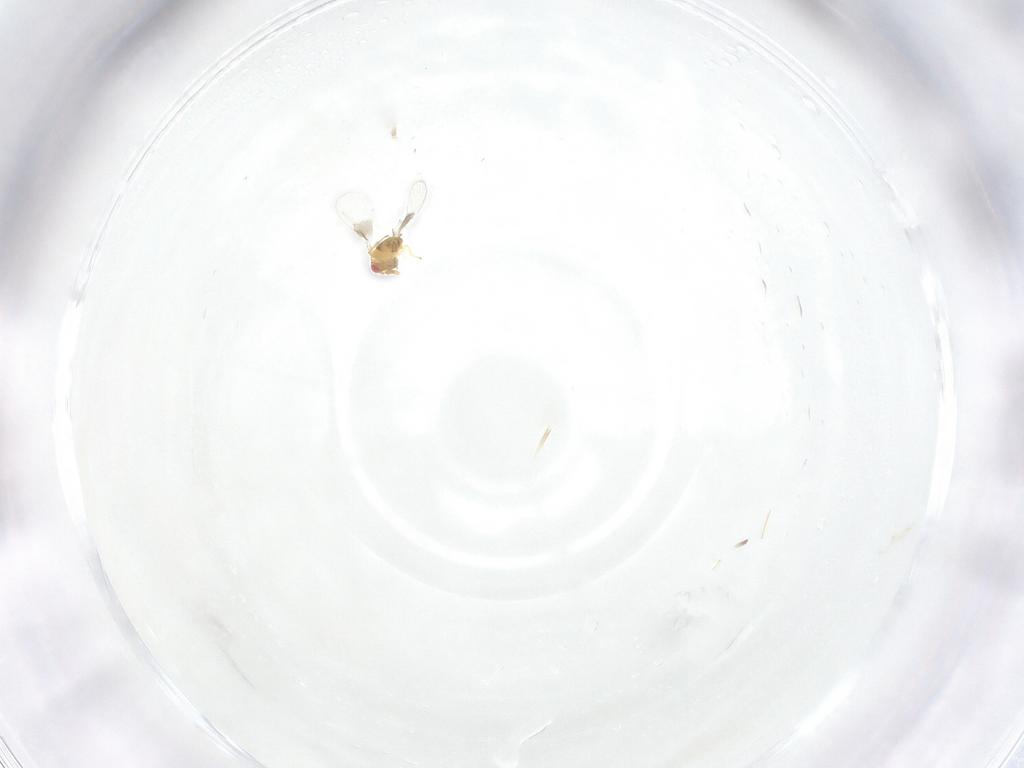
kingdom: Animalia
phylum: Arthropoda
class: Insecta
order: Hymenoptera
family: Trichogrammatidae
